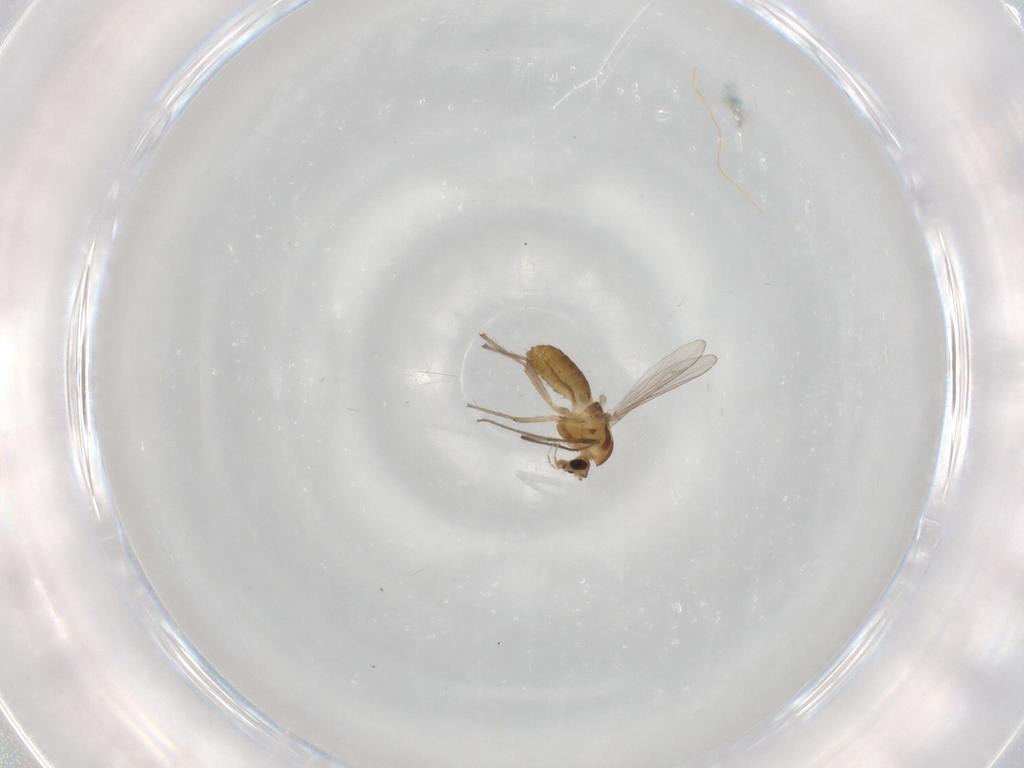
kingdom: Animalia
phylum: Arthropoda
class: Insecta
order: Diptera
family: Chironomidae
